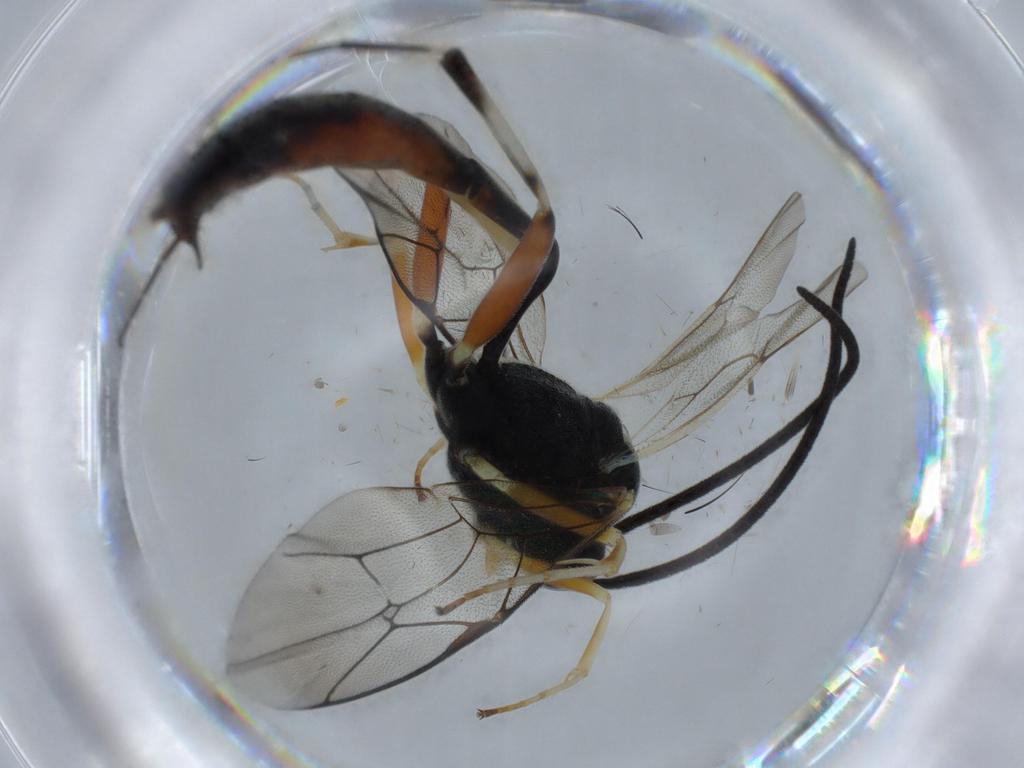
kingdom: Animalia
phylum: Arthropoda
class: Insecta
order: Hymenoptera
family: Ichneumonidae
